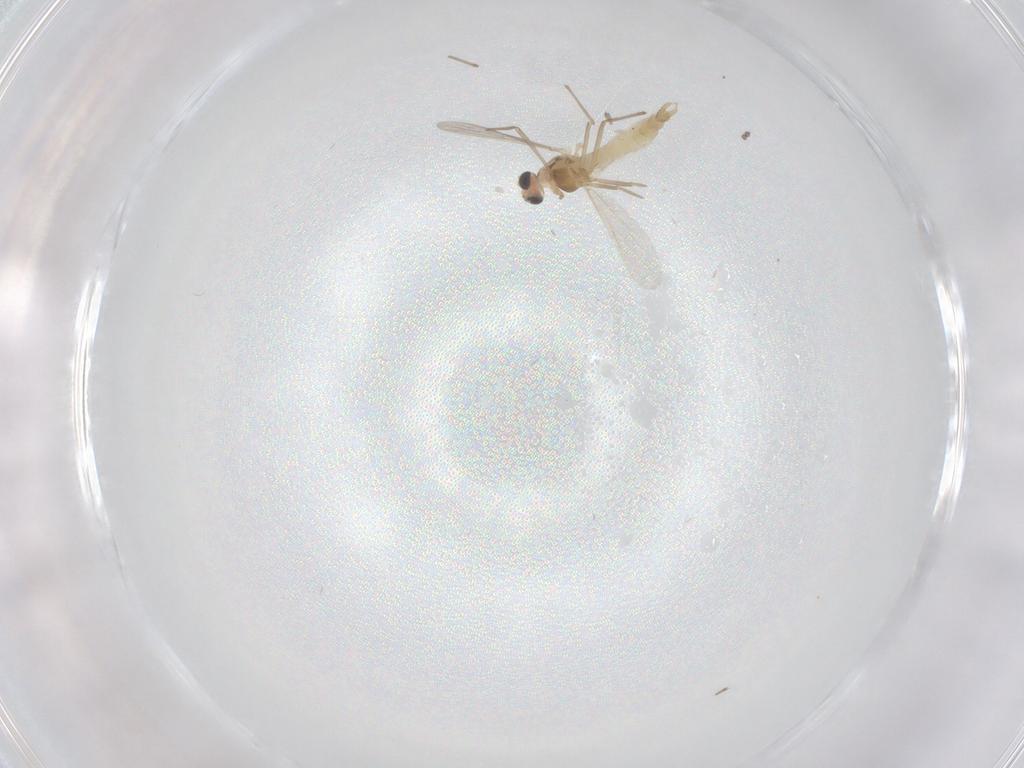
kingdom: Animalia
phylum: Arthropoda
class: Insecta
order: Diptera
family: Chironomidae
